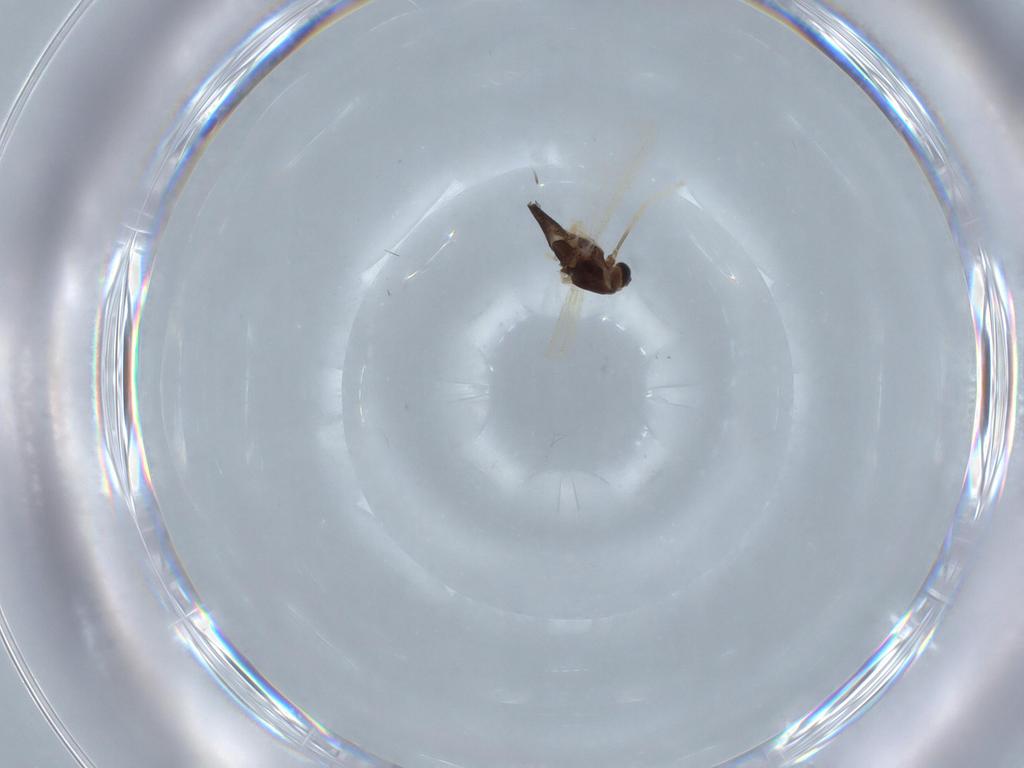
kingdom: Animalia
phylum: Arthropoda
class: Insecta
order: Diptera
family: Chironomidae
